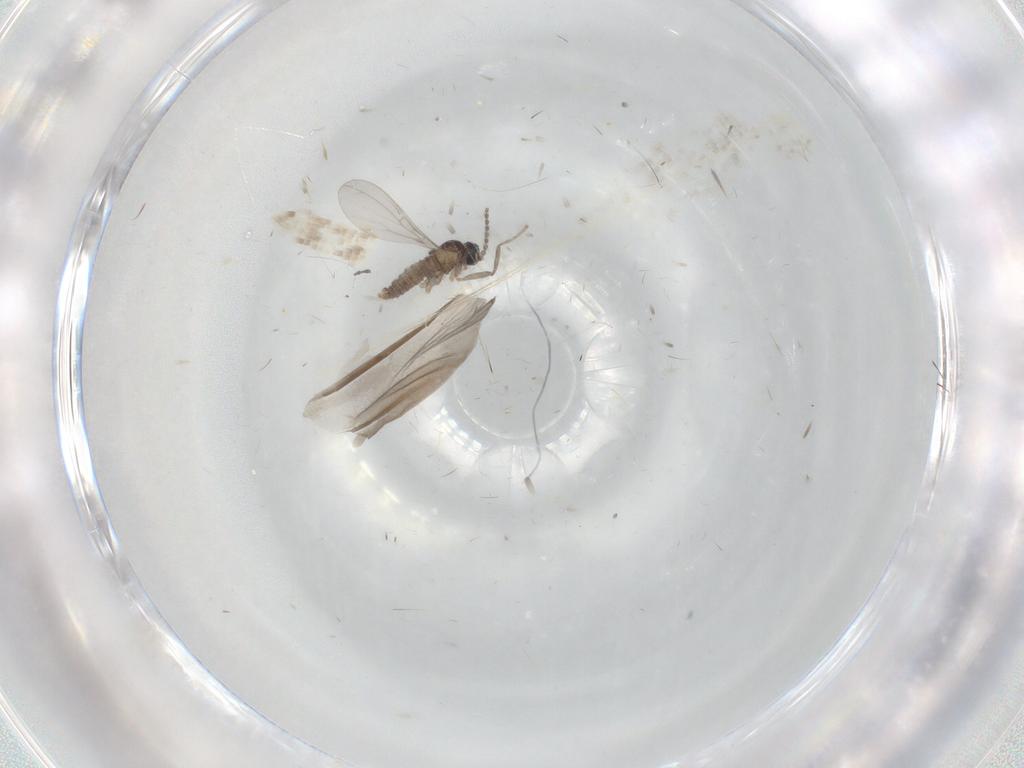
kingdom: Animalia
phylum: Arthropoda
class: Insecta
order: Diptera
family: Cecidomyiidae
